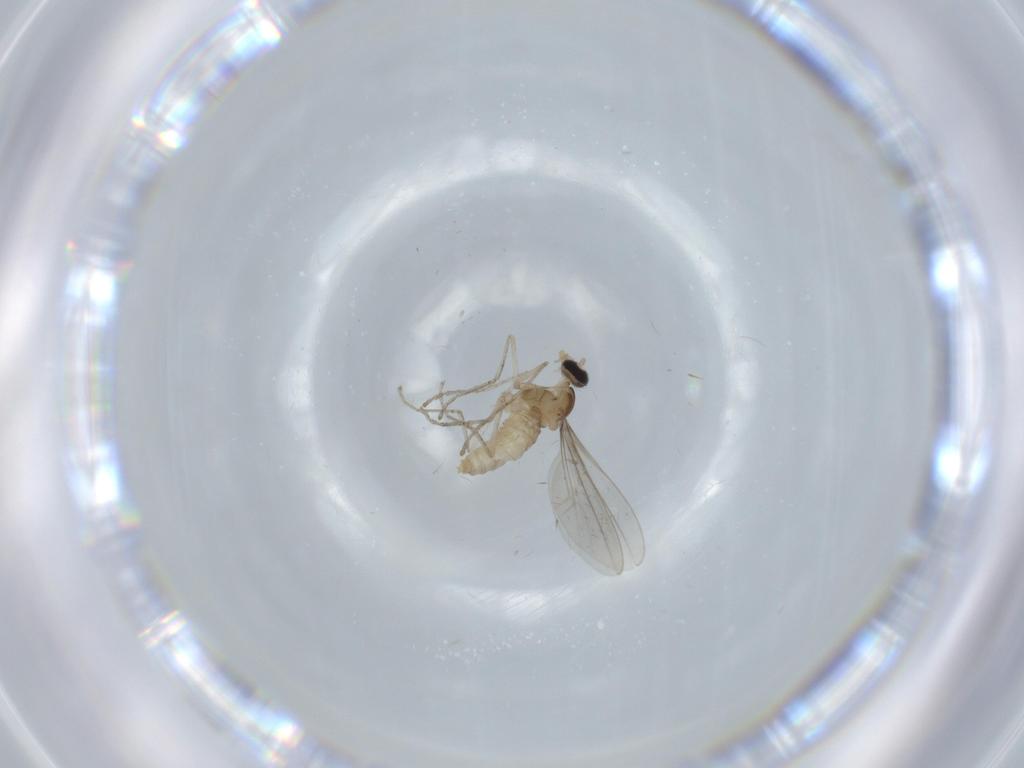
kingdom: Animalia
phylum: Arthropoda
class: Insecta
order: Diptera
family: Cecidomyiidae
